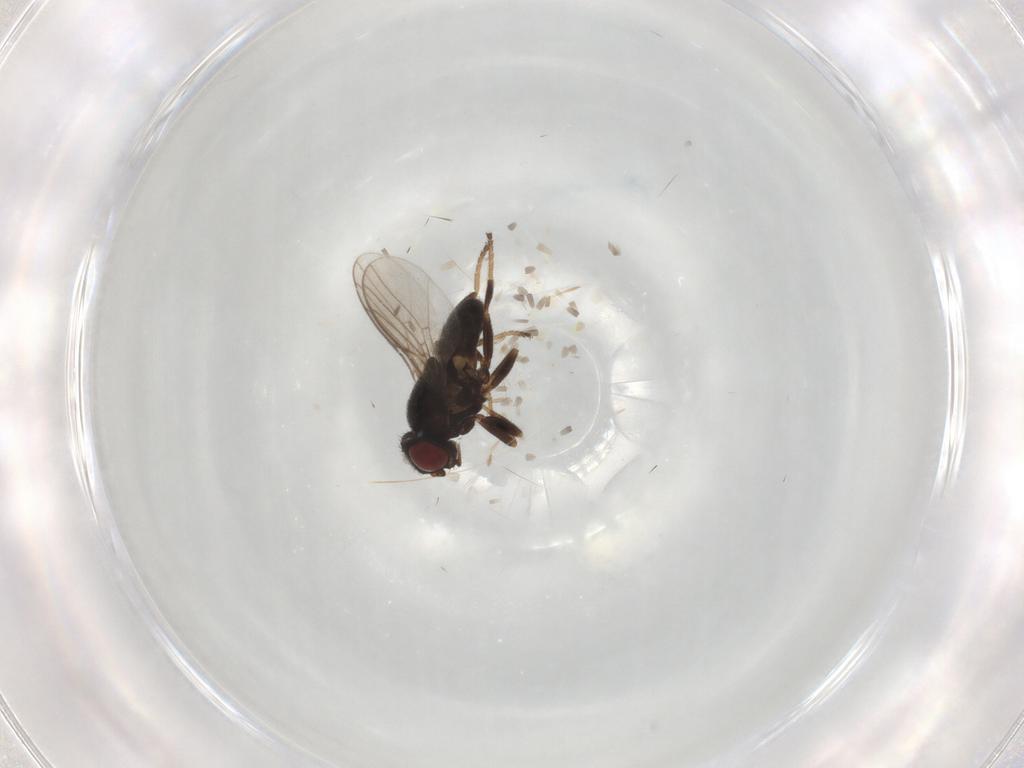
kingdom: Animalia
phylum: Arthropoda
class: Insecta
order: Diptera
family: Chloropidae
